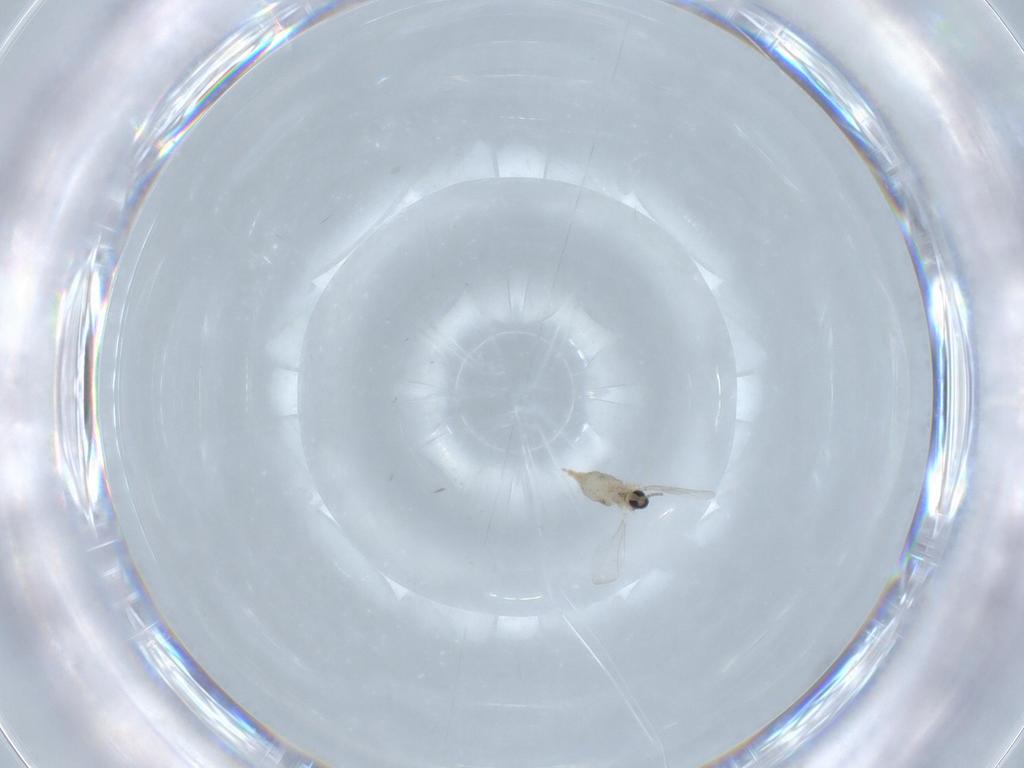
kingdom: Animalia
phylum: Arthropoda
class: Insecta
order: Diptera
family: Cecidomyiidae
